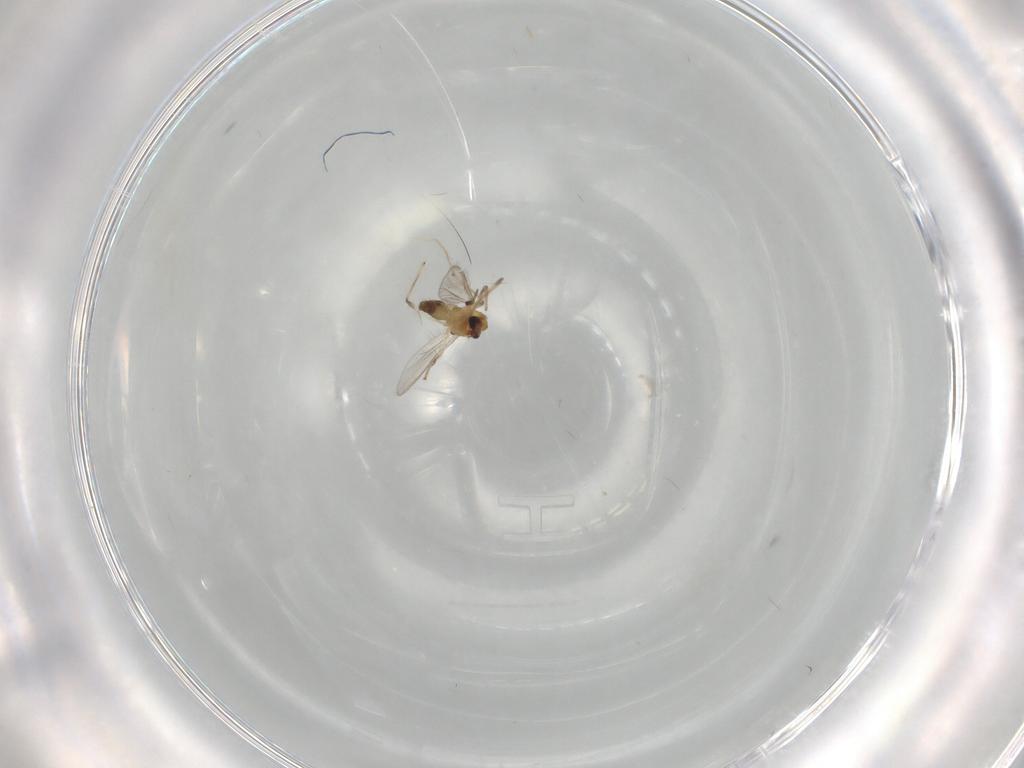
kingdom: Animalia
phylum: Arthropoda
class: Insecta
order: Diptera
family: Chironomidae
